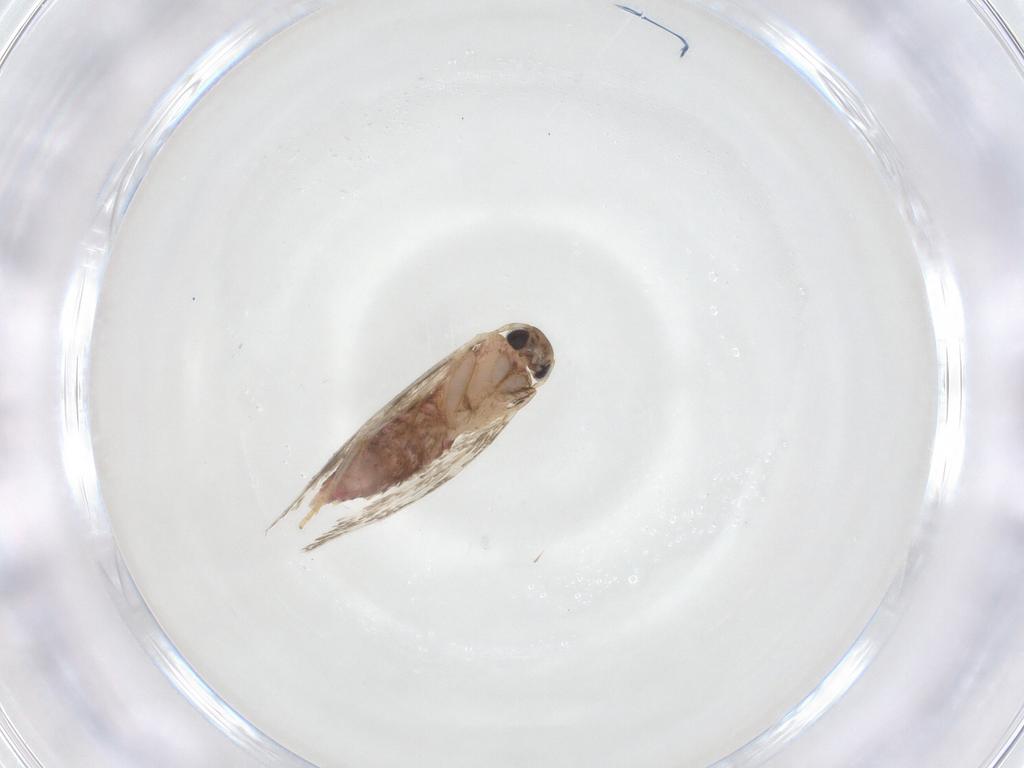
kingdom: Animalia
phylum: Arthropoda
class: Insecta
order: Lepidoptera
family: Gelechiidae
